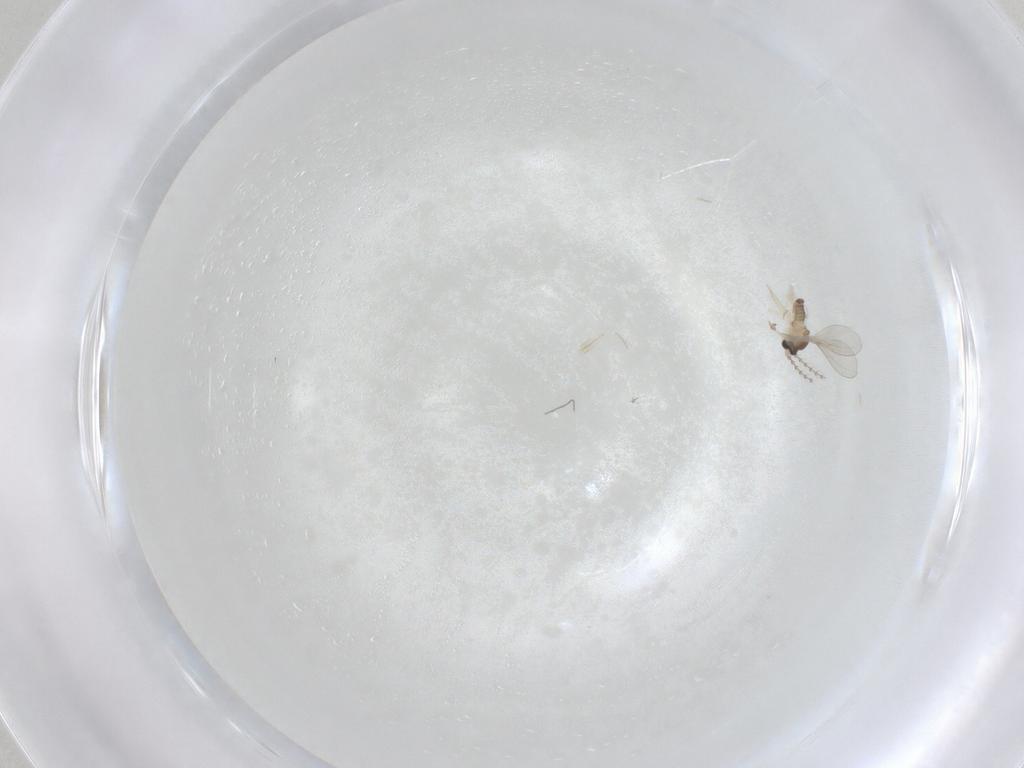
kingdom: Animalia
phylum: Arthropoda
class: Insecta
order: Diptera
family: Cecidomyiidae
